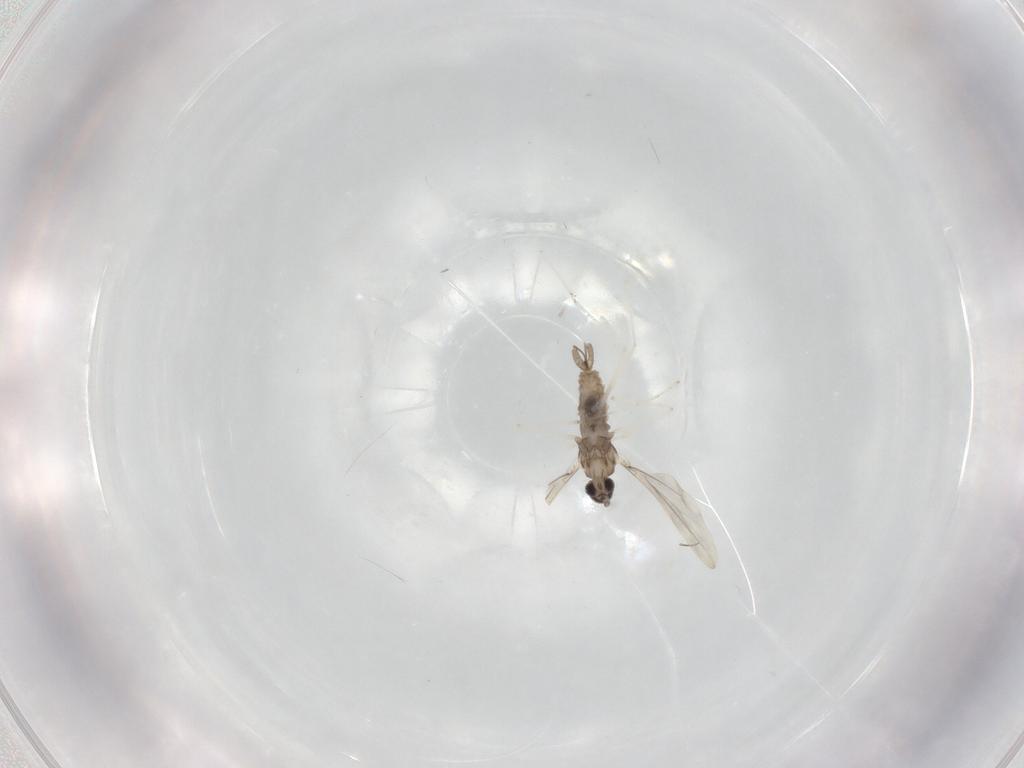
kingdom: Animalia
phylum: Arthropoda
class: Insecta
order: Diptera
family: Cecidomyiidae
